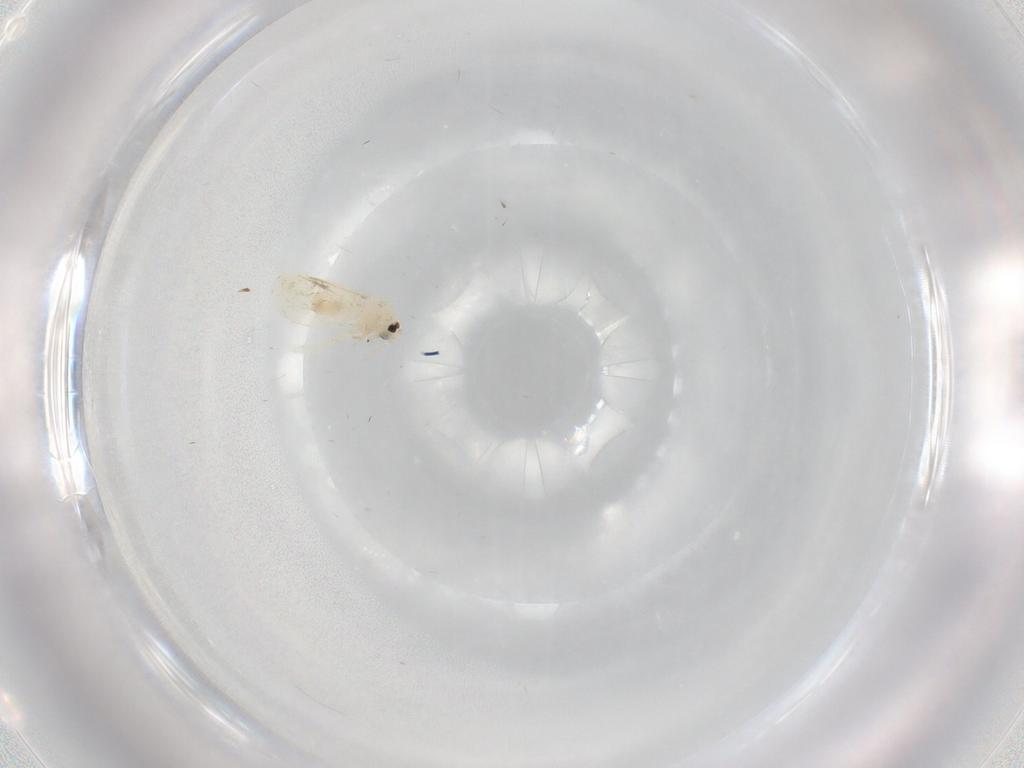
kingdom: Animalia
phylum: Arthropoda
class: Insecta
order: Hemiptera
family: Aleyrodidae
